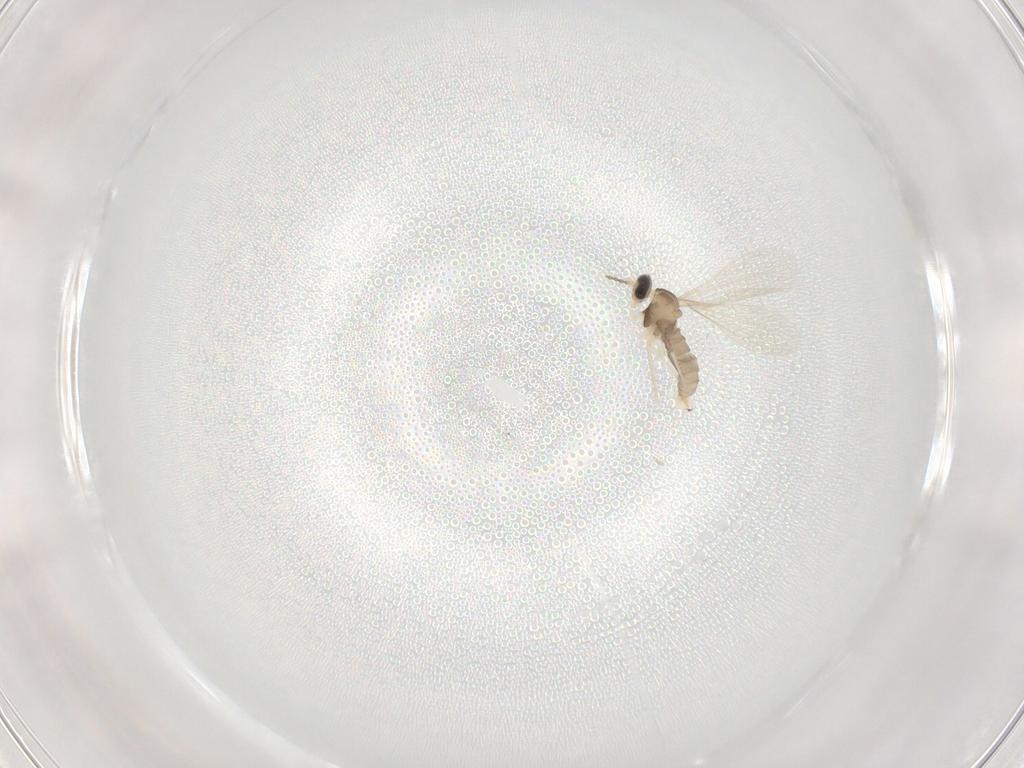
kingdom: Animalia
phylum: Arthropoda
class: Insecta
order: Diptera
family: Cecidomyiidae
